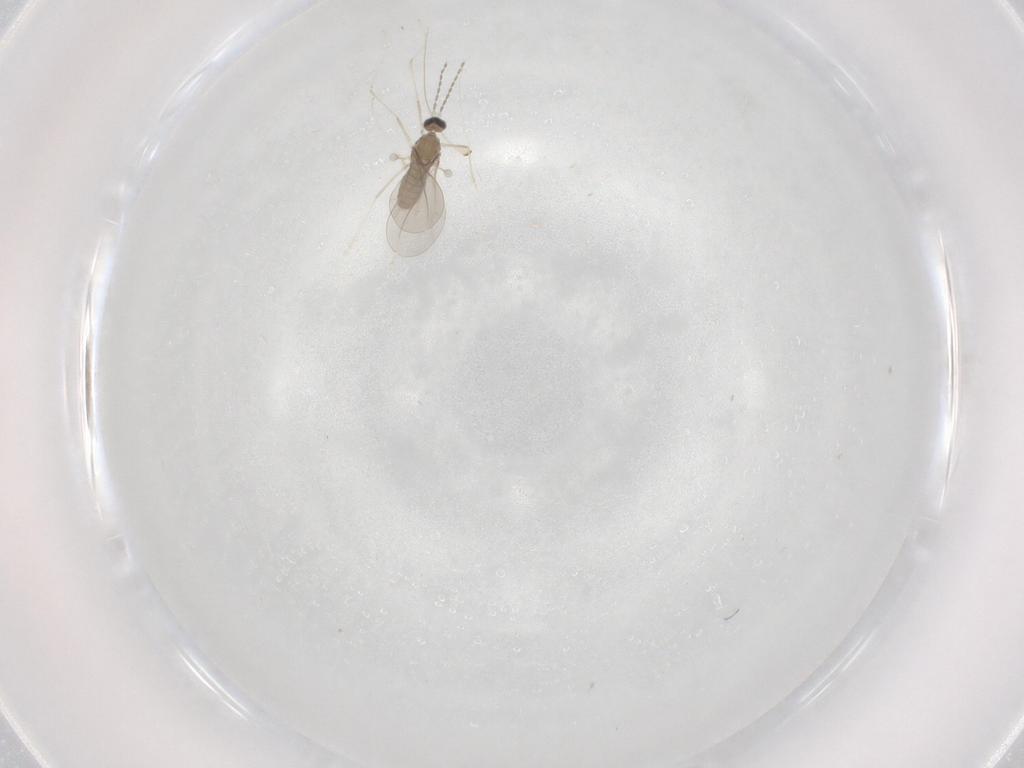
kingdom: Animalia
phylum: Arthropoda
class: Insecta
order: Diptera
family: Cecidomyiidae
